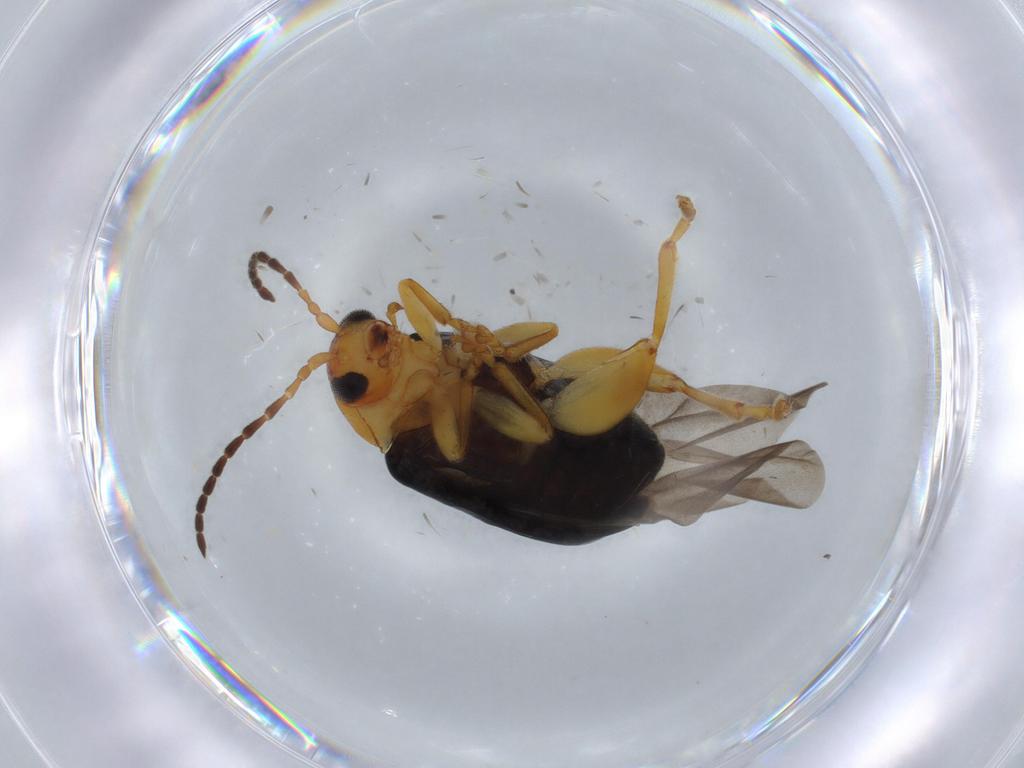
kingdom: Animalia
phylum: Arthropoda
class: Insecta
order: Coleoptera
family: Chrysomelidae
